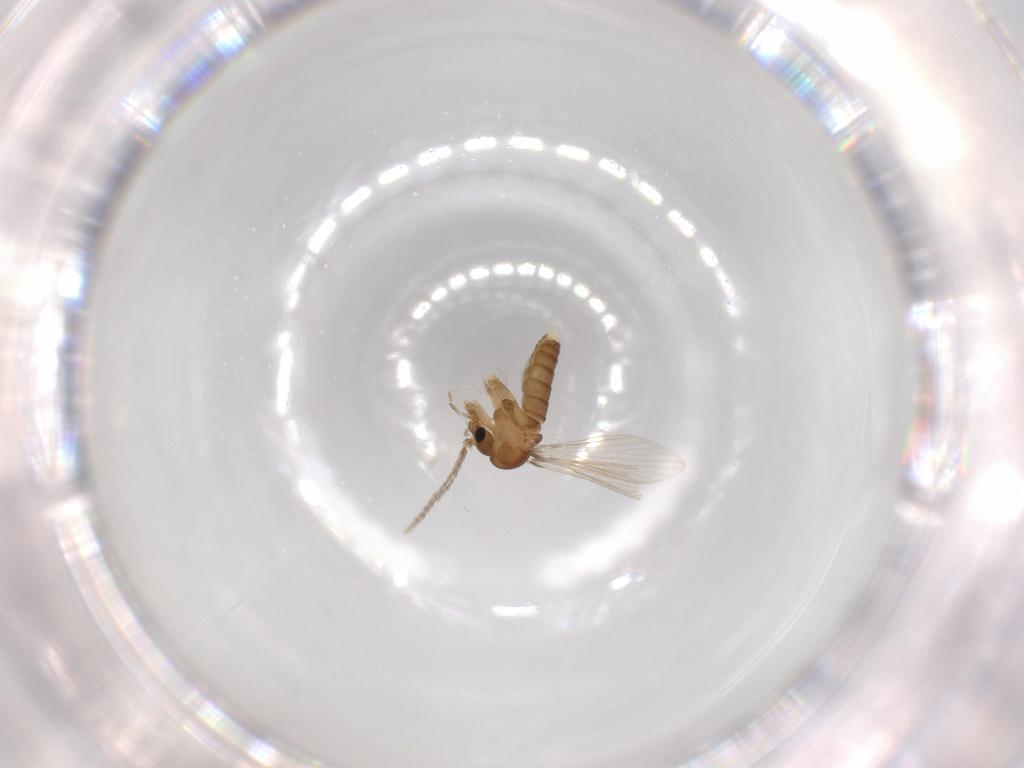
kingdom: Animalia
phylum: Arthropoda
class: Insecta
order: Diptera
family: Psychodidae
